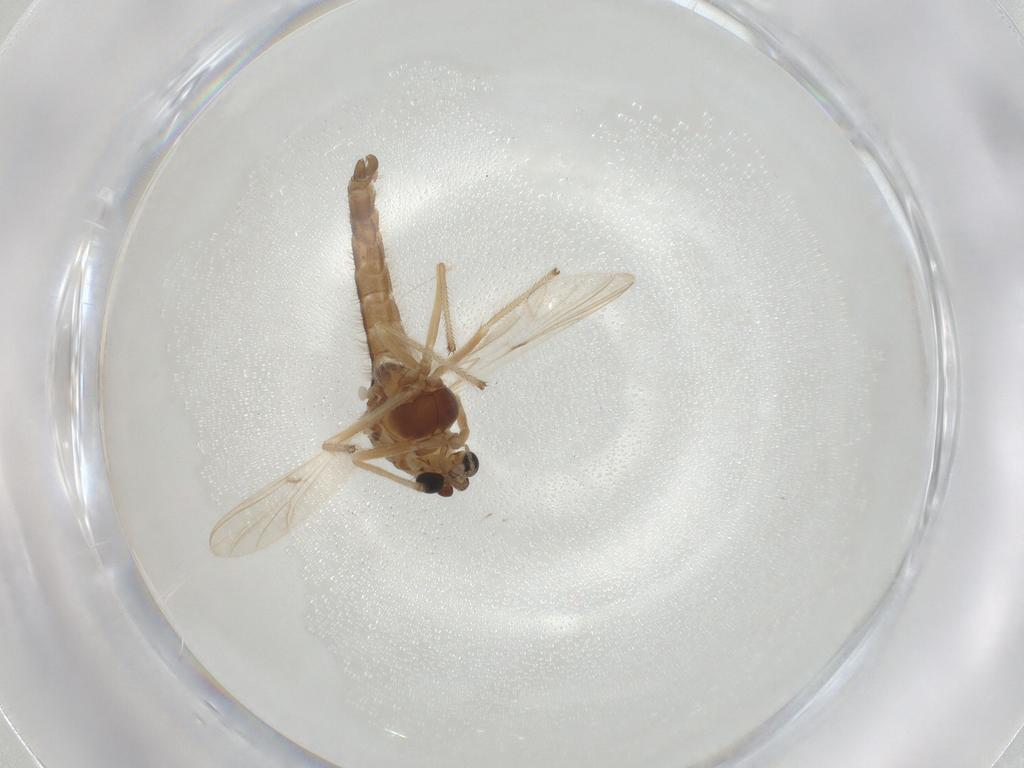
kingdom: Animalia
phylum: Arthropoda
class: Insecta
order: Diptera
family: Chironomidae
